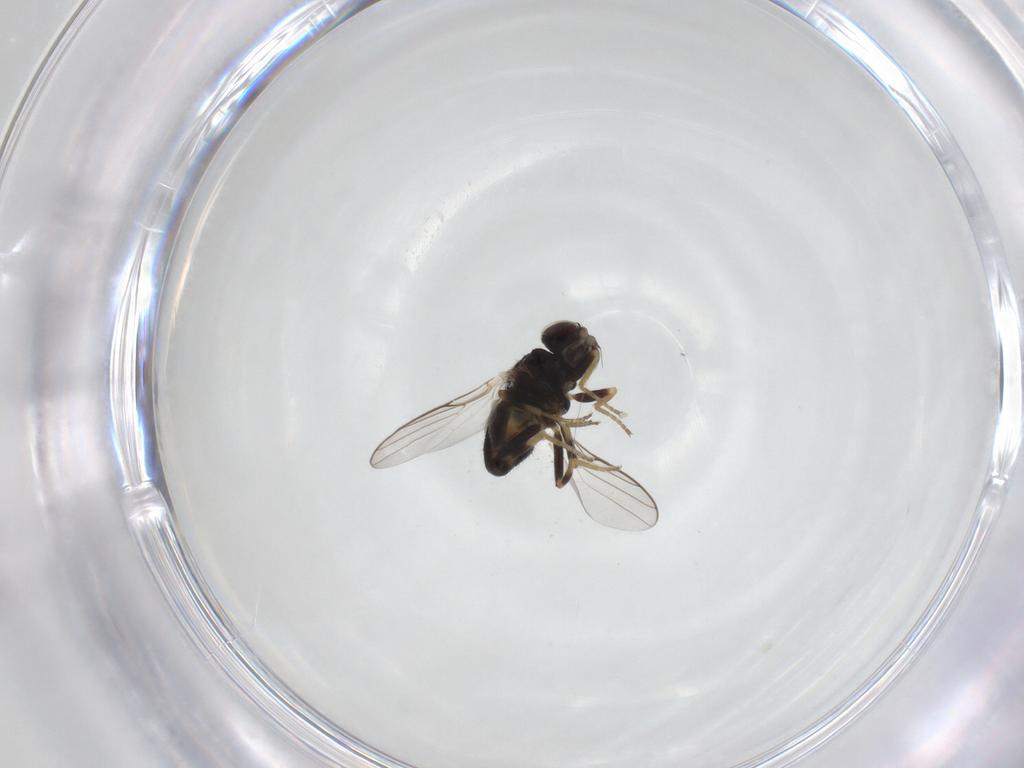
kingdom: Animalia
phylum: Arthropoda
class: Insecta
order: Diptera
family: Chloropidae
